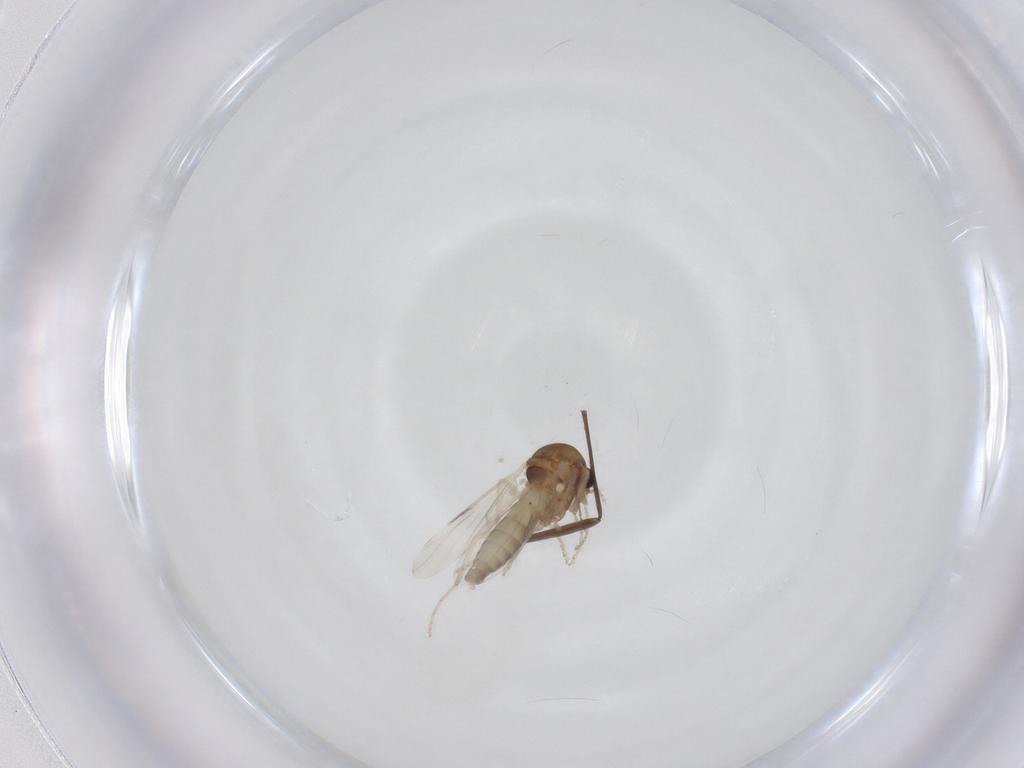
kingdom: Animalia
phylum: Arthropoda
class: Insecta
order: Diptera
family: Ceratopogonidae
